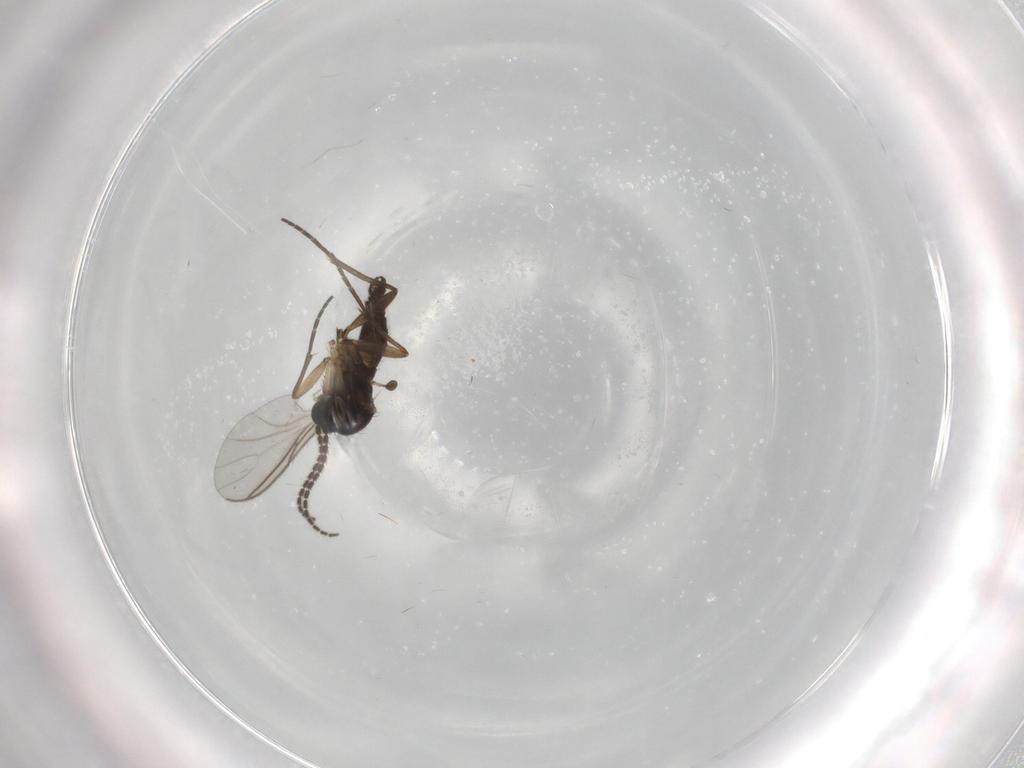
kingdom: Animalia
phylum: Arthropoda
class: Insecta
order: Diptera
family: Sciaridae
